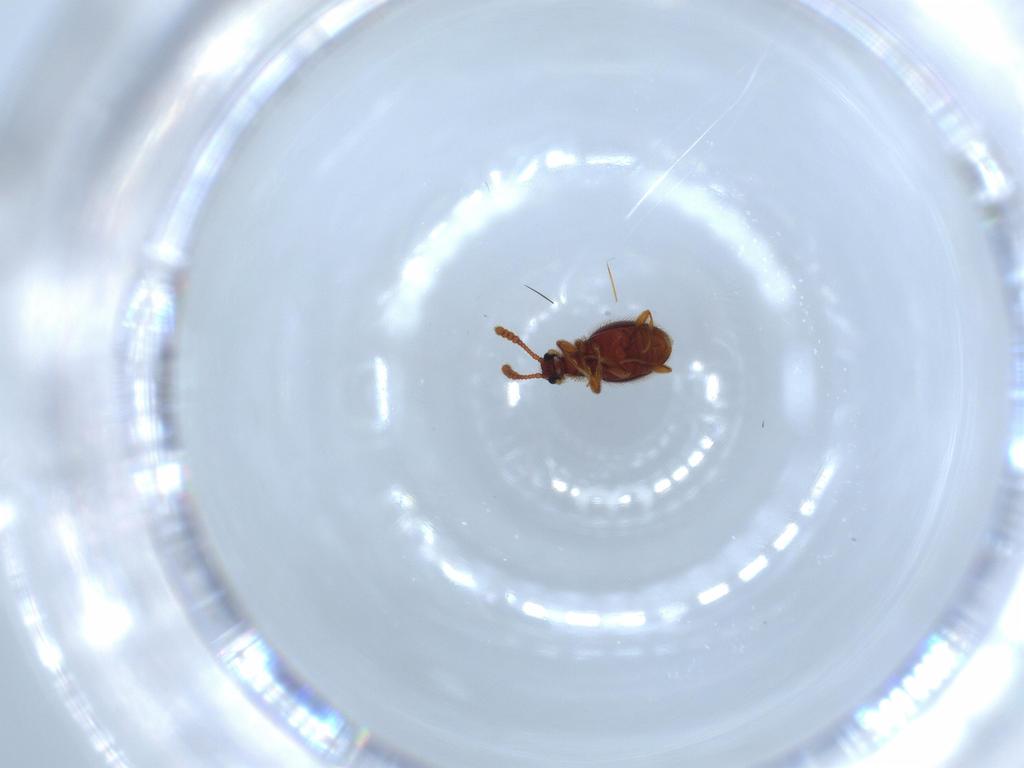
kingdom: Animalia
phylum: Arthropoda
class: Insecta
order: Coleoptera
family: Staphylinidae
